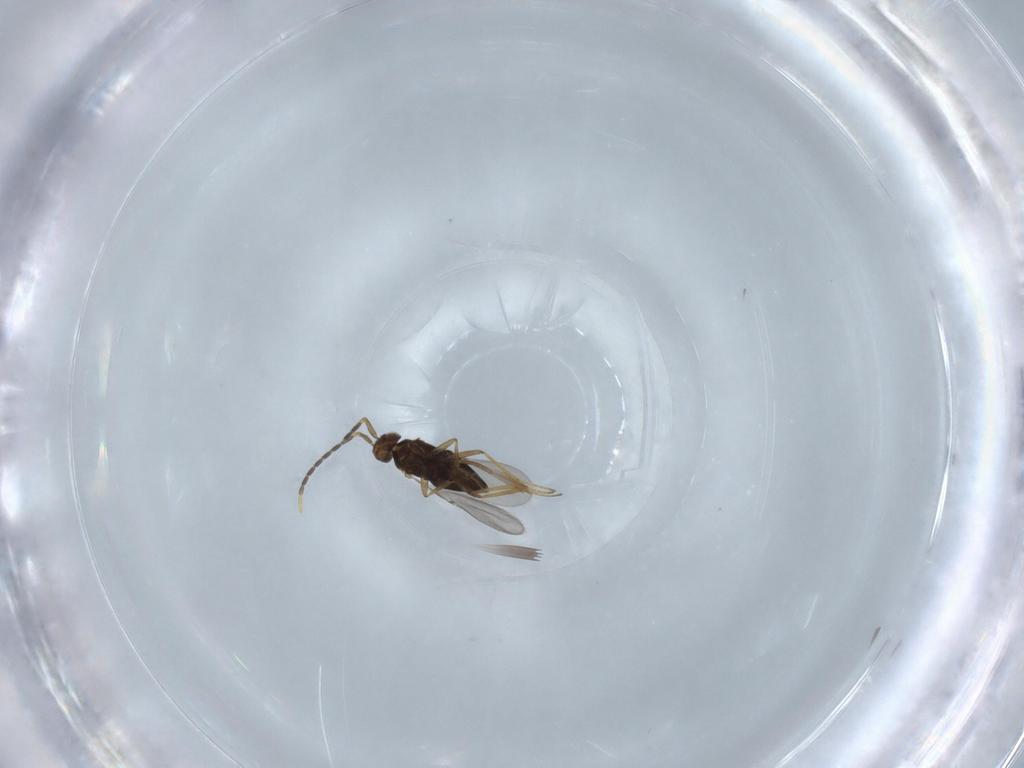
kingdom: Animalia
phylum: Arthropoda
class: Insecta
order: Hymenoptera
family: Encyrtidae
